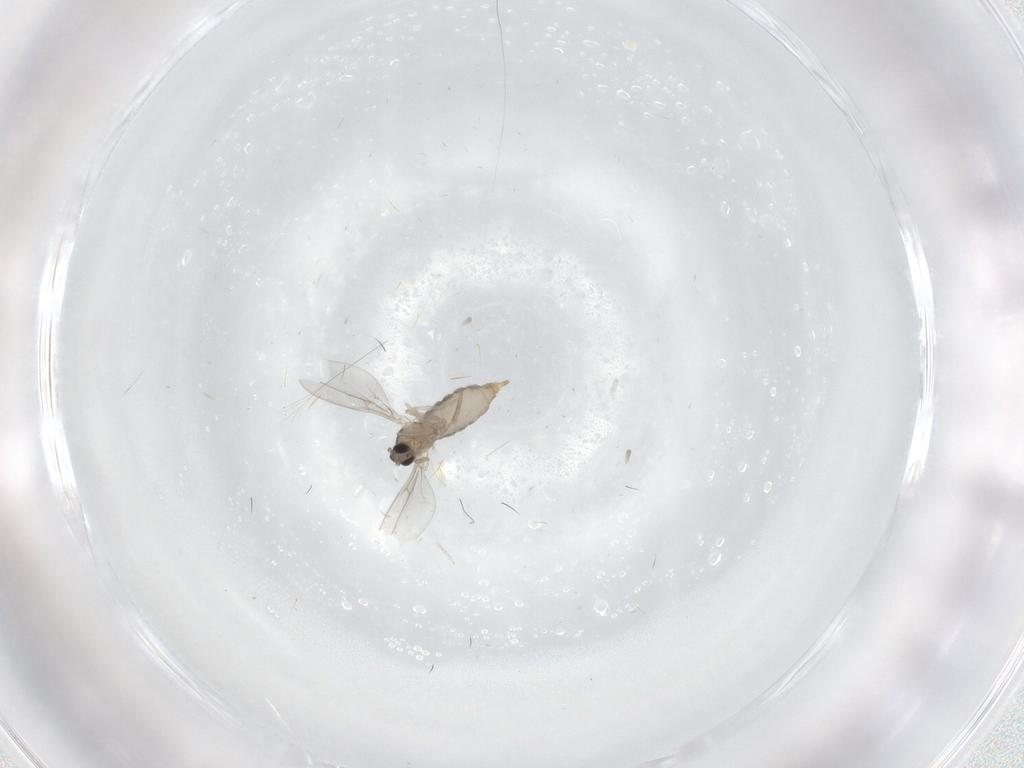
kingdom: Animalia
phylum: Arthropoda
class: Insecta
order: Diptera
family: Cecidomyiidae
